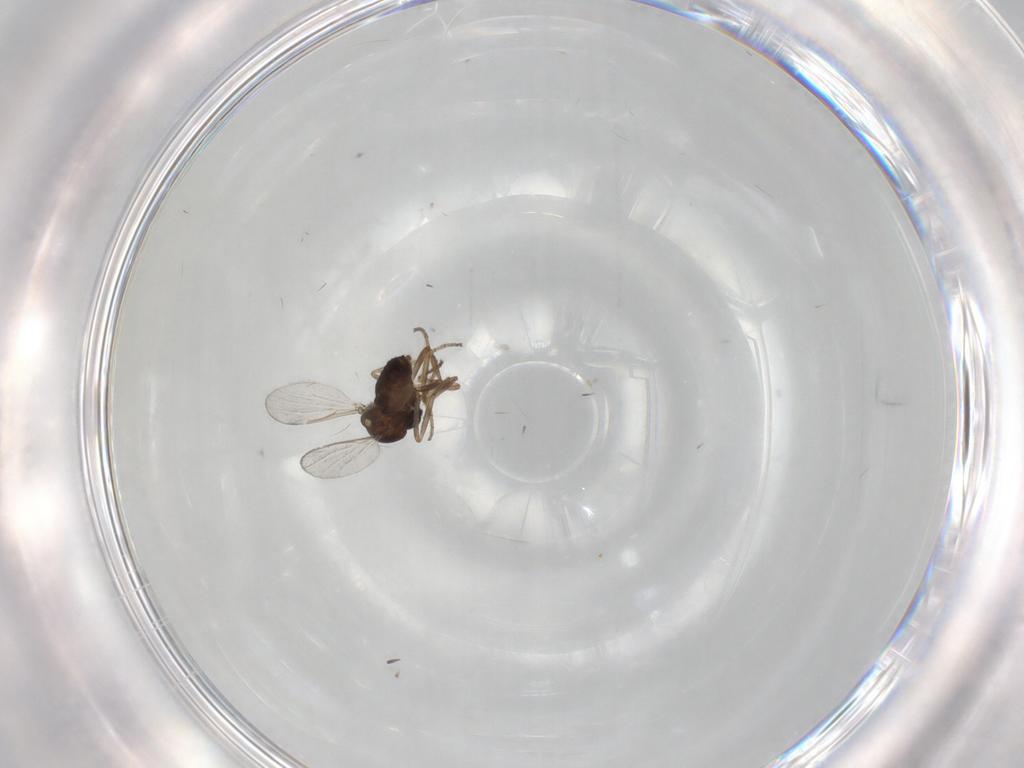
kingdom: Animalia
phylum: Arthropoda
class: Insecta
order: Diptera
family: Ceratopogonidae
